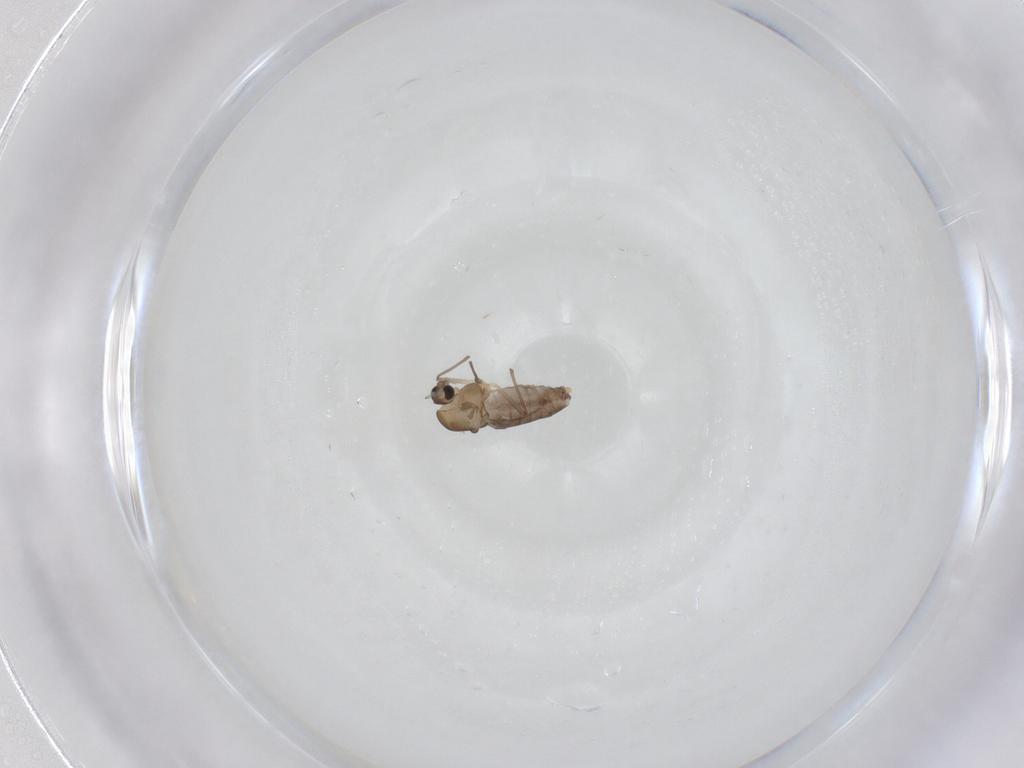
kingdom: Animalia
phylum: Arthropoda
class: Insecta
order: Diptera
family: Chironomidae
